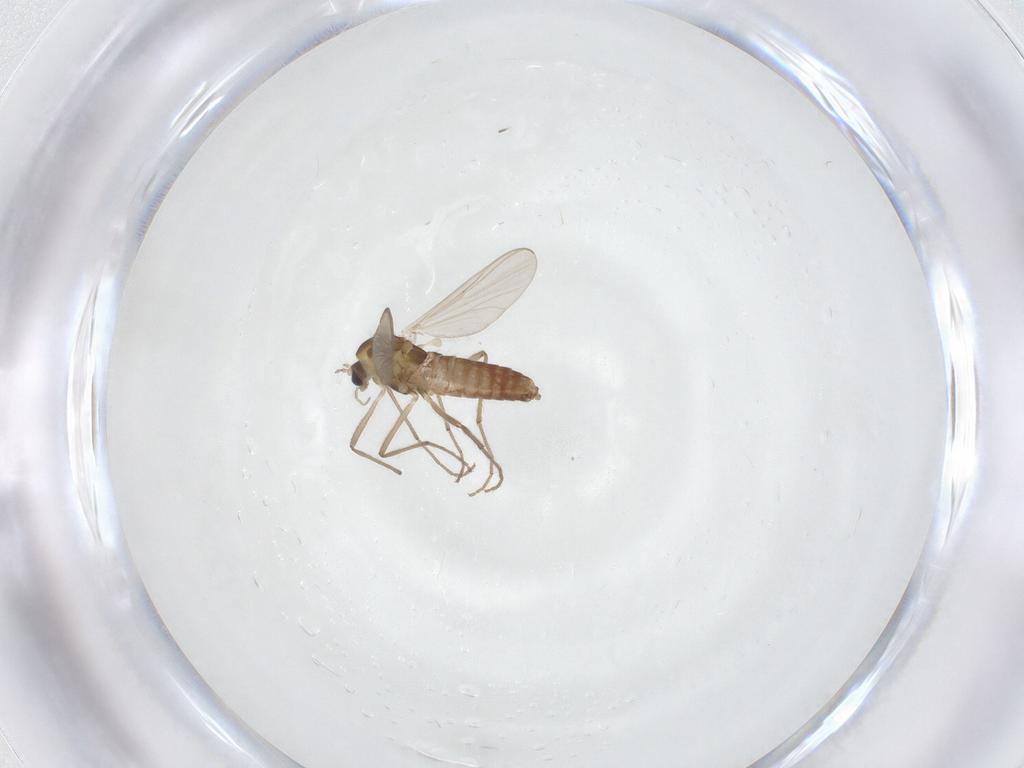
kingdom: Animalia
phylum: Arthropoda
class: Insecta
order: Diptera
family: Chironomidae
